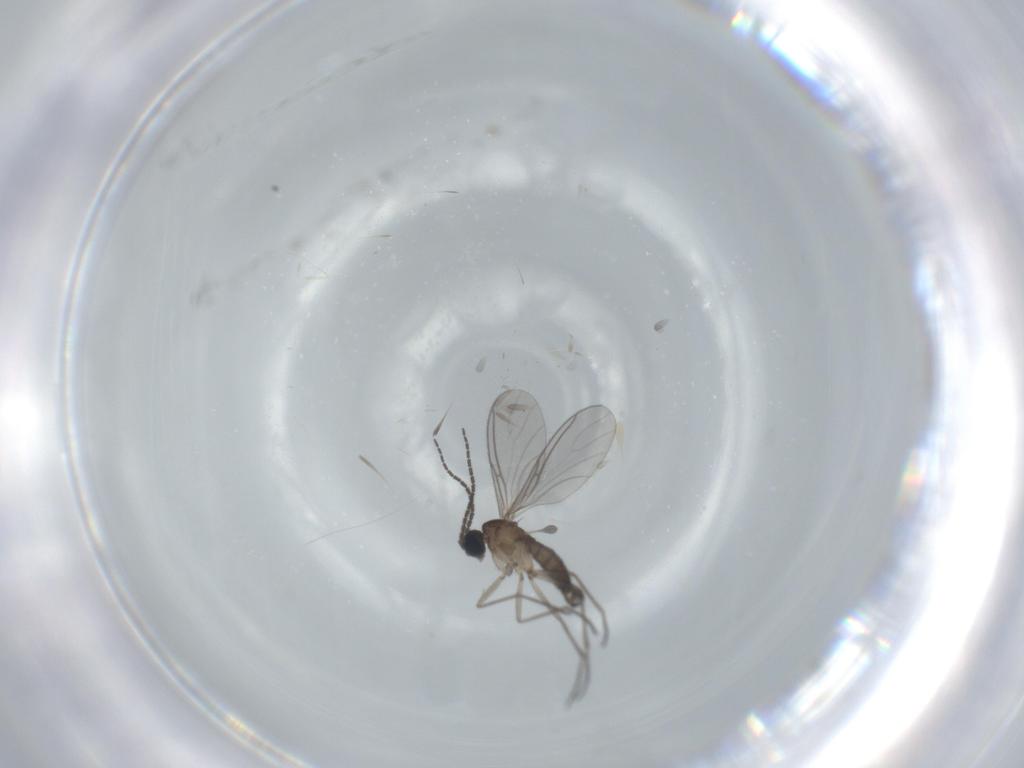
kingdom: Animalia
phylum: Arthropoda
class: Insecta
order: Diptera
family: Sciaridae
